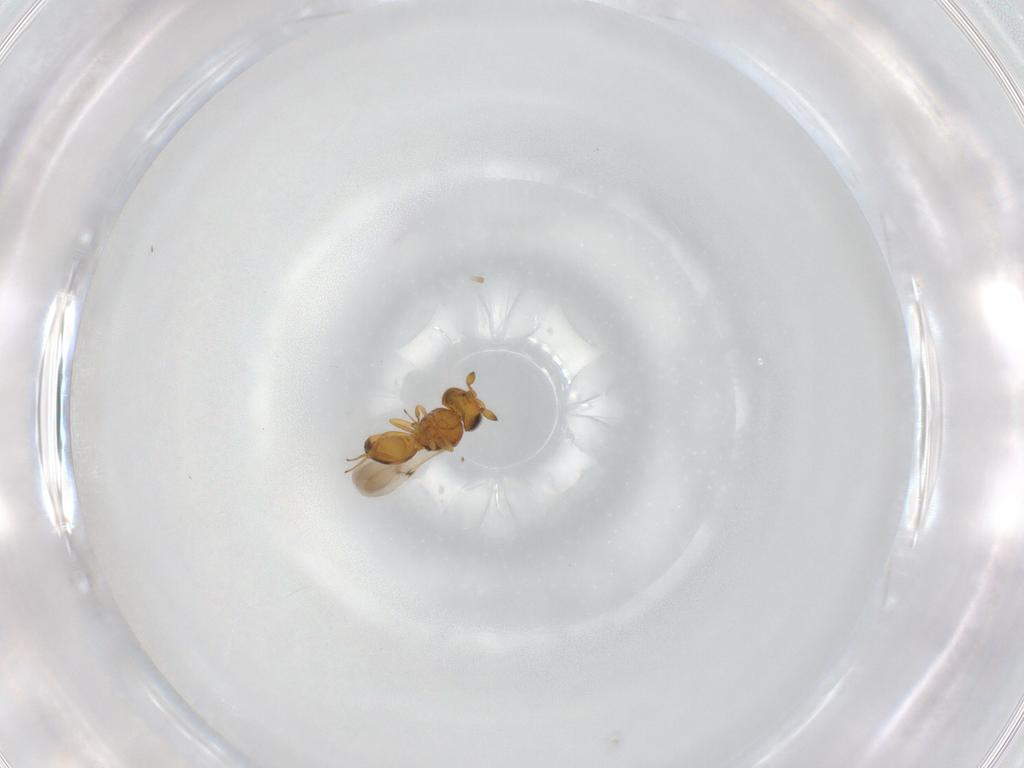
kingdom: Animalia
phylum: Arthropoda
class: Insecta
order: Hymenoptera
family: Scelionidae
